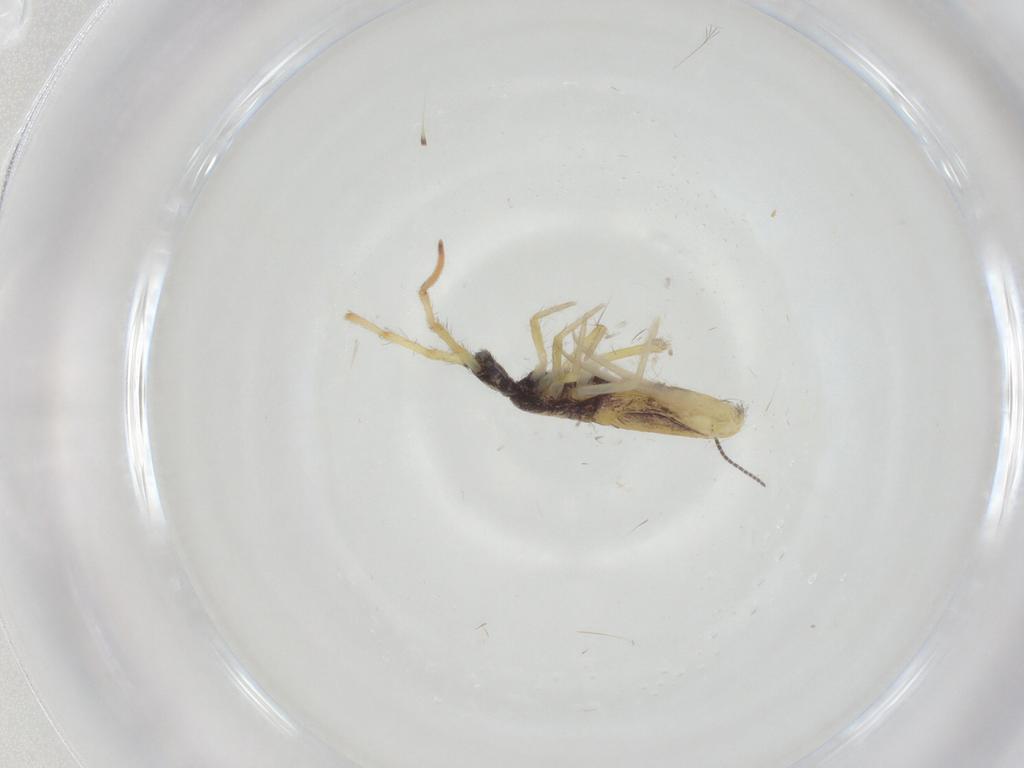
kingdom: Animalia
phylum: Arthropoda
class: Collembola
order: Entomobryomorpha
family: Entomobryidae
